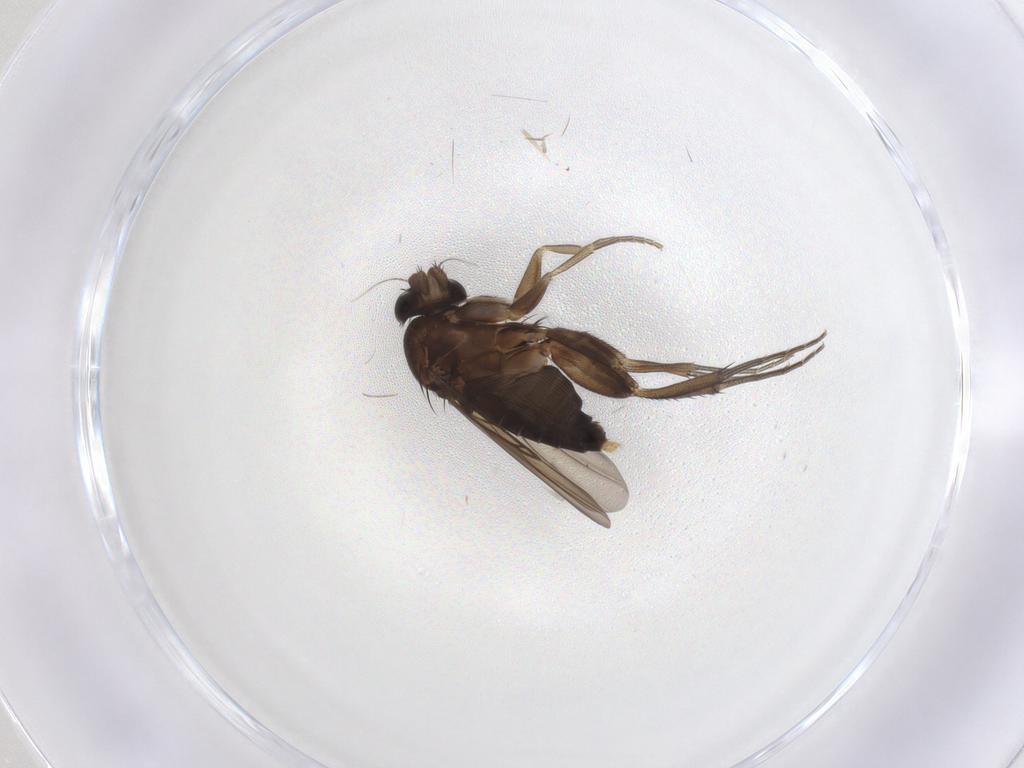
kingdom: Animalia
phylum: Arthropoda
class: Insecta
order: Diptera
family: Phoridae
